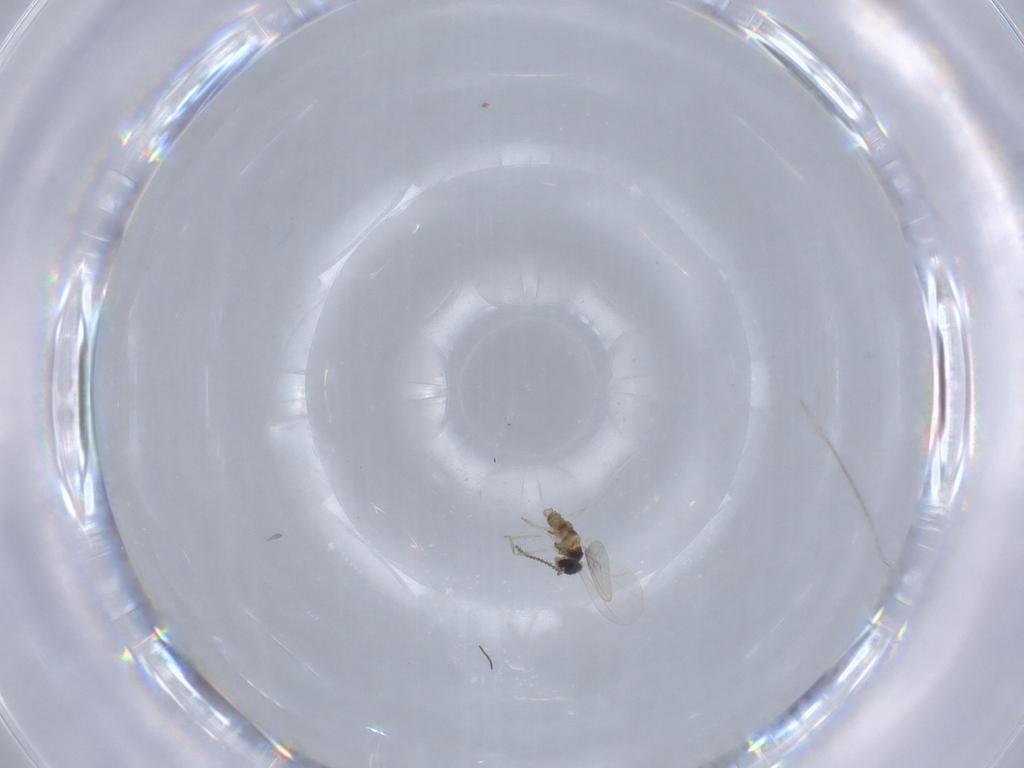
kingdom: Animalia
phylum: Arthropoda
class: Insecta
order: Diptera
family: Cecidomyiidae
